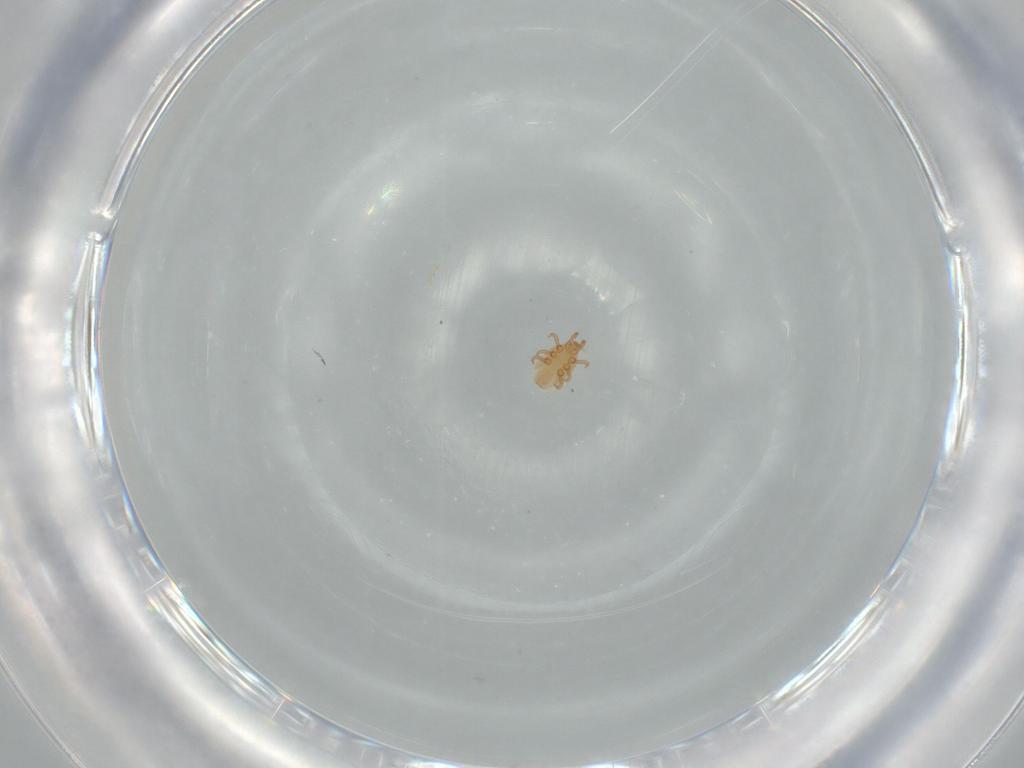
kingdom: Animalia
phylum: Arthropoda
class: Arachnida
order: Mesostigmata
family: Dinychidae
